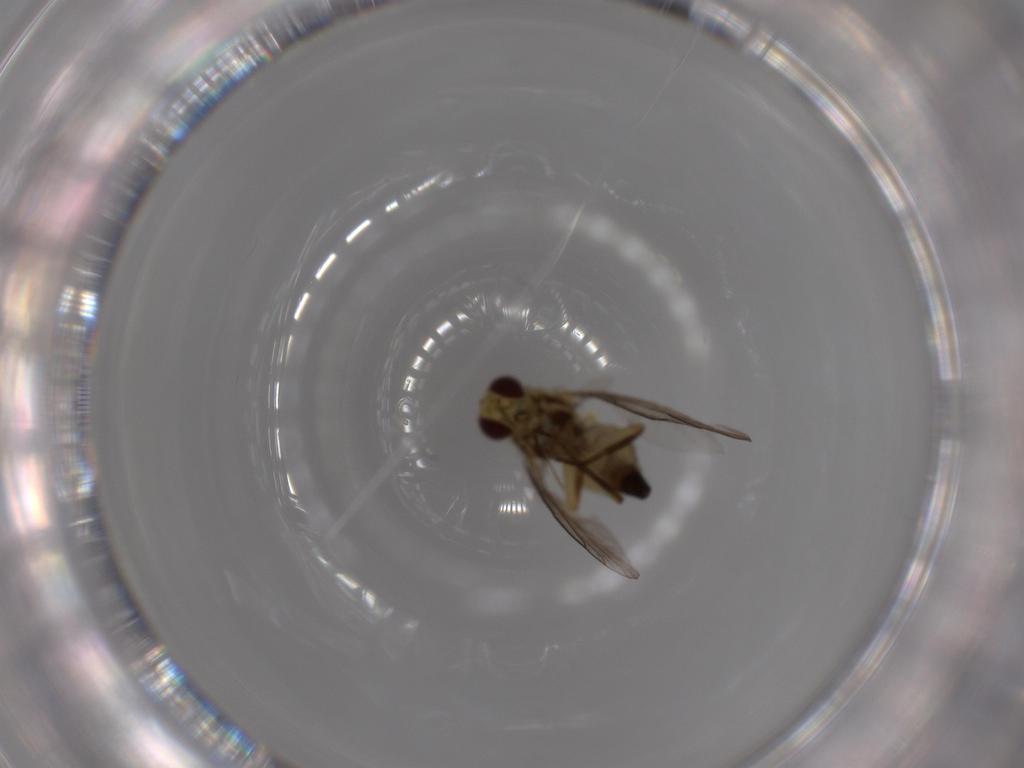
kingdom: Animalia
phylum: Arthropoda
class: Insecta
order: Diptera
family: Agromyzidae
